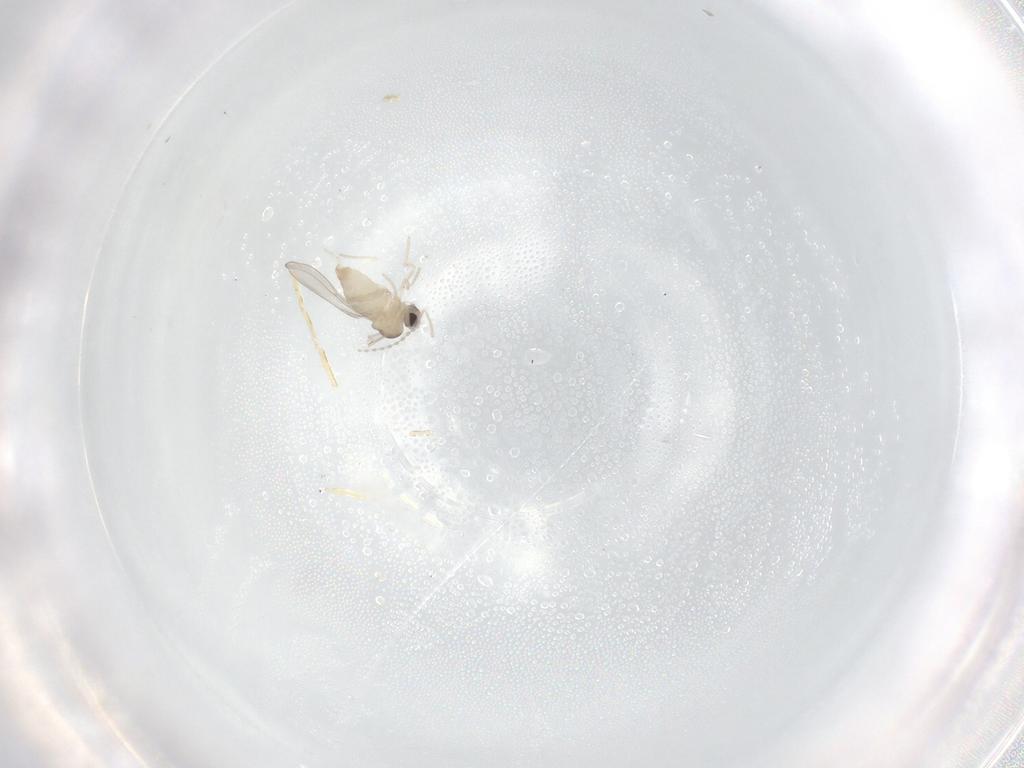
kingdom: Animalia
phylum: Arthropoda
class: Insecta
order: Diptera
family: Cecidomyiidae
